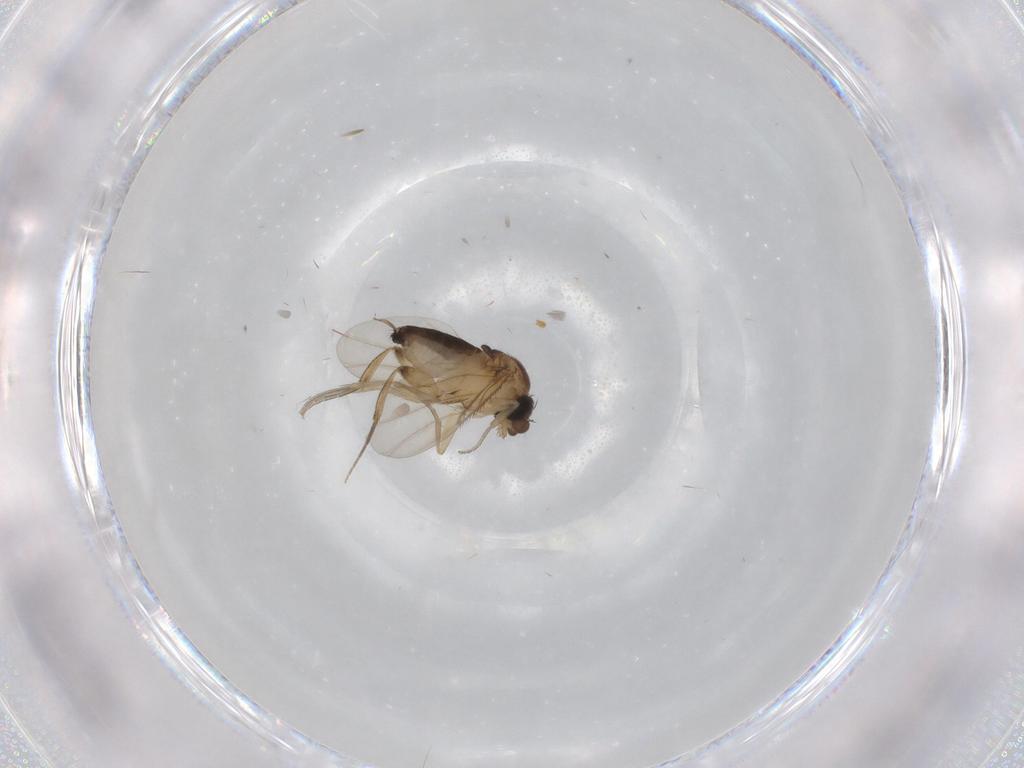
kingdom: Animalia
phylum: Arthropoda
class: Insecta
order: Diptera
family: Phoridae
